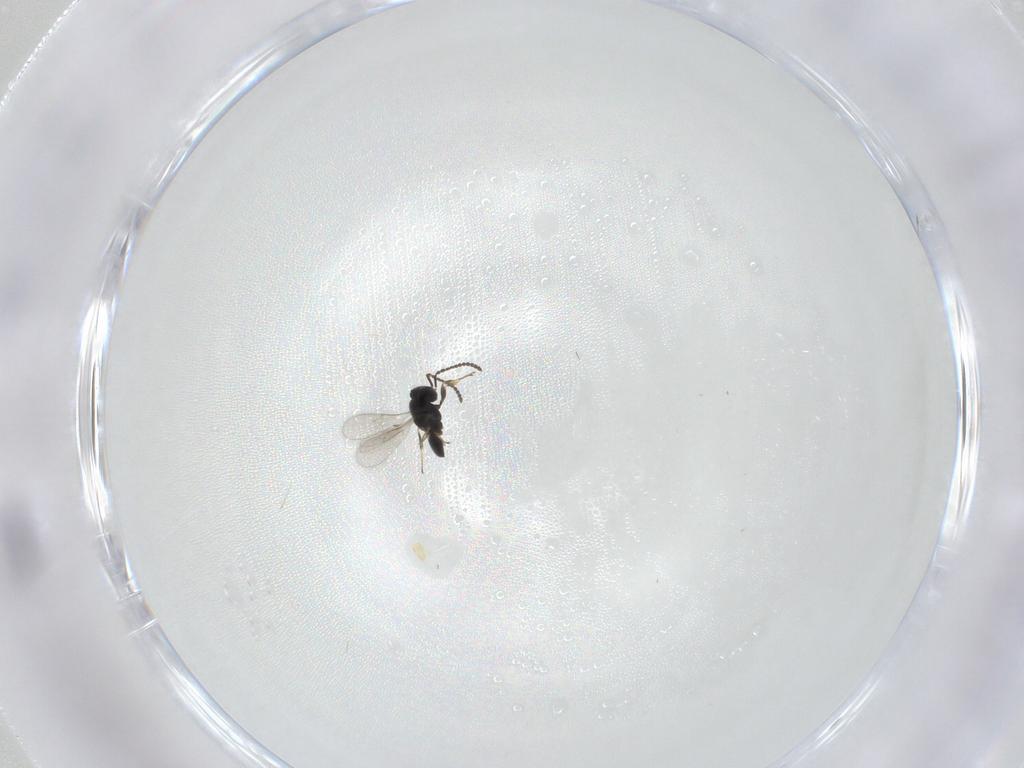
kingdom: Animalia
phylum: Arthropoda
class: Insecta
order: Hymenoptera
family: Scelionidae
